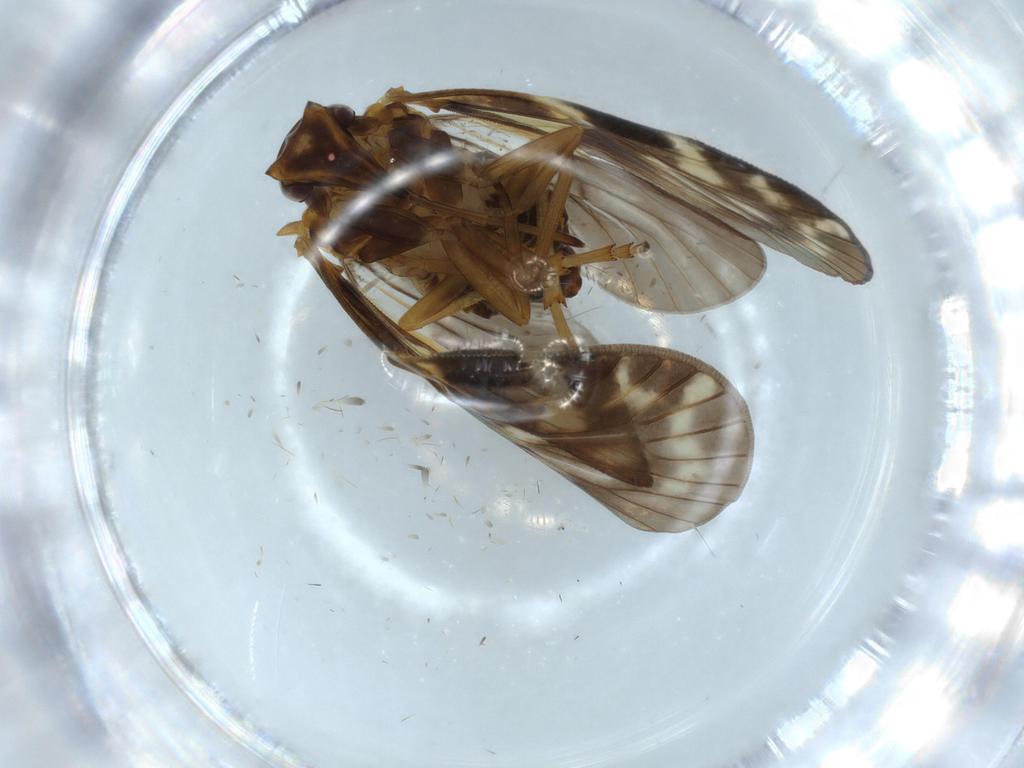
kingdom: Animalia
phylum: Arthropoda
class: Insecta
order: Hemiptera
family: Cixiidae
